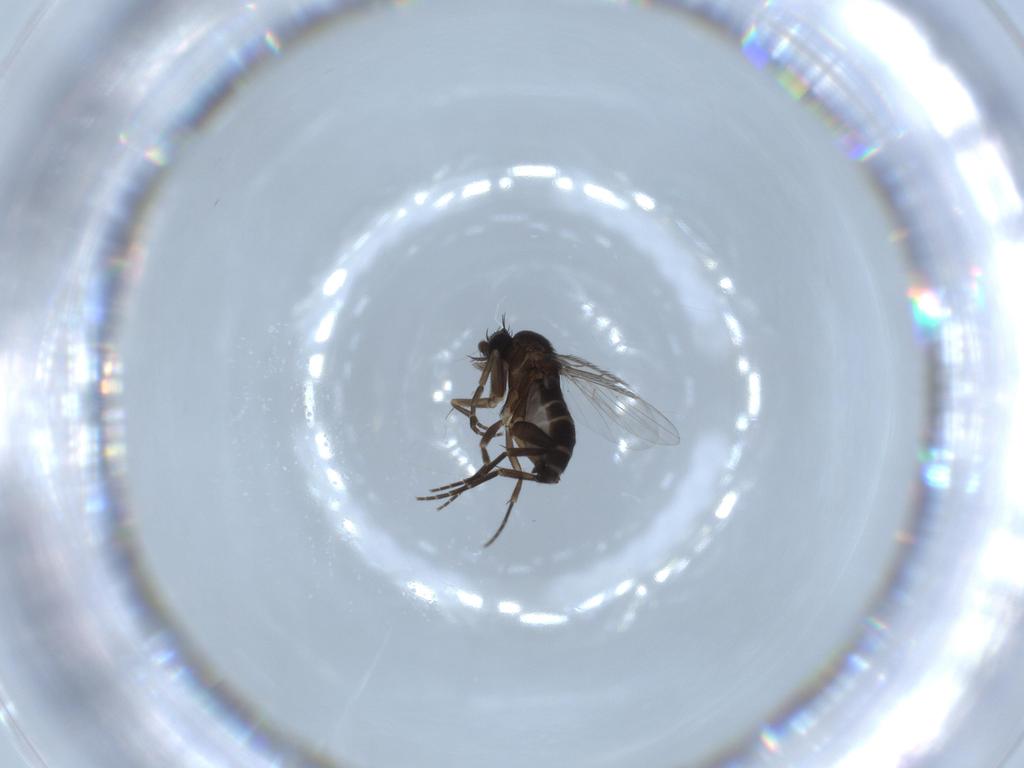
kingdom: Animalia
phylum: Arthropoda
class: Insecta
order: Diptera
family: Phoridae
